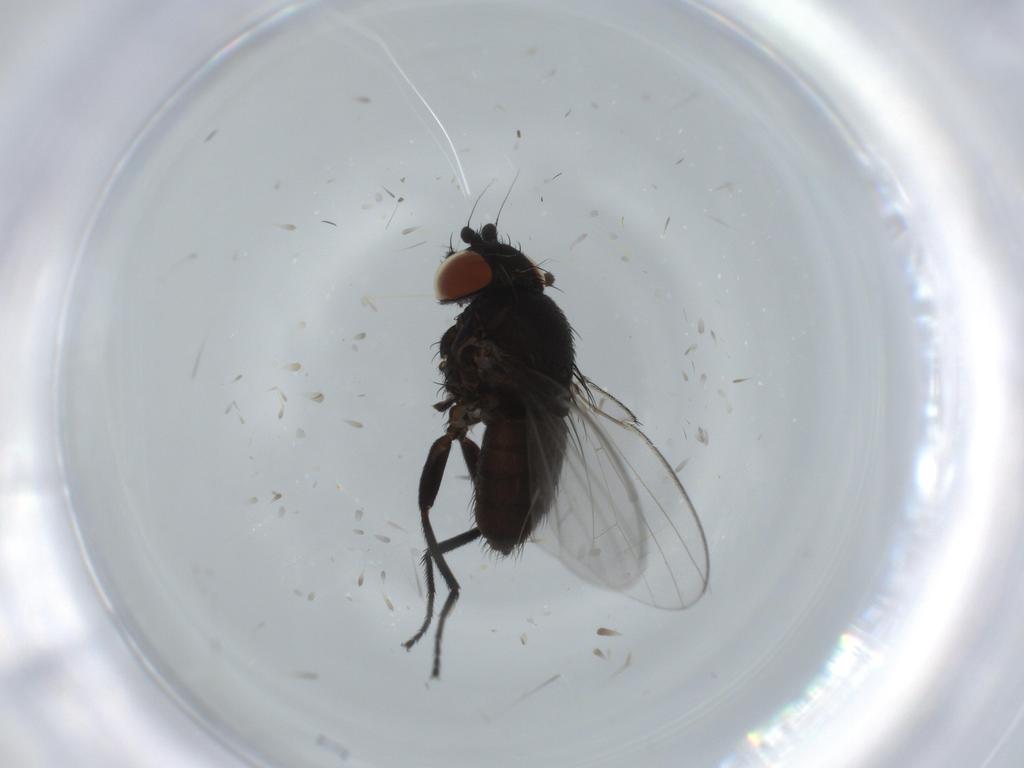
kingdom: Animalia
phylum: Arthropoda
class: Insecta
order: Diptera
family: Milichiidae
